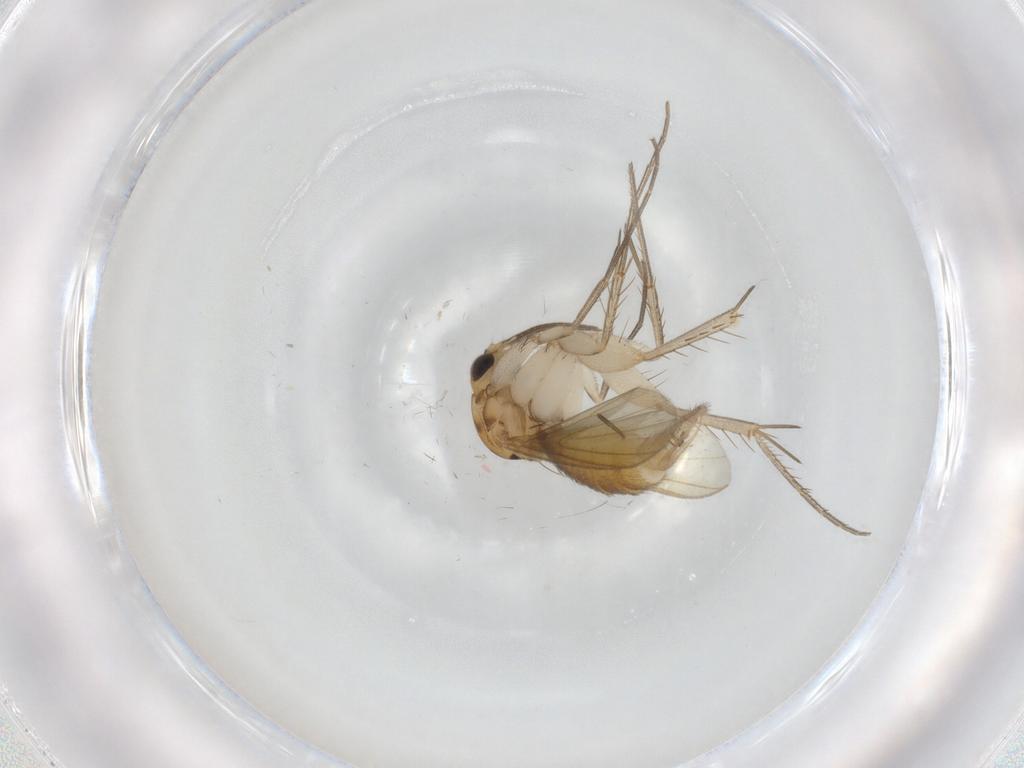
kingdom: Animalia
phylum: Arthropoda
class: Insecta
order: Diptera
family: Mycetophilidae
